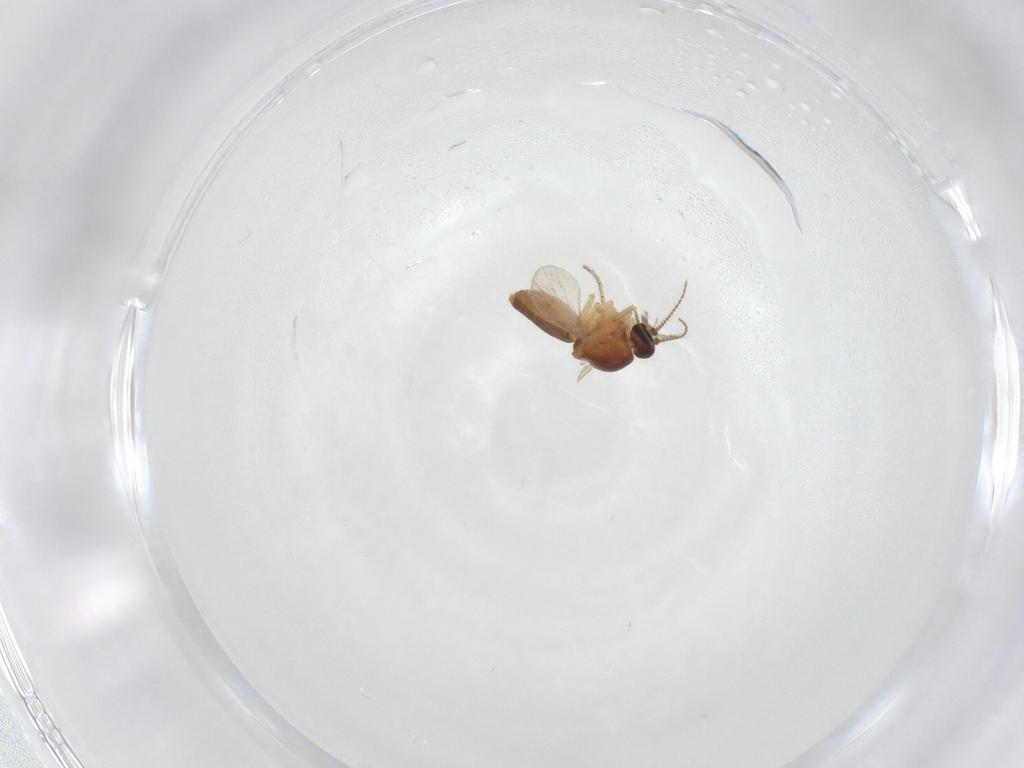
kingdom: Animalia
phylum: Arthropoda
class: Insecta
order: Diptera
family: Ceratopogonidae
